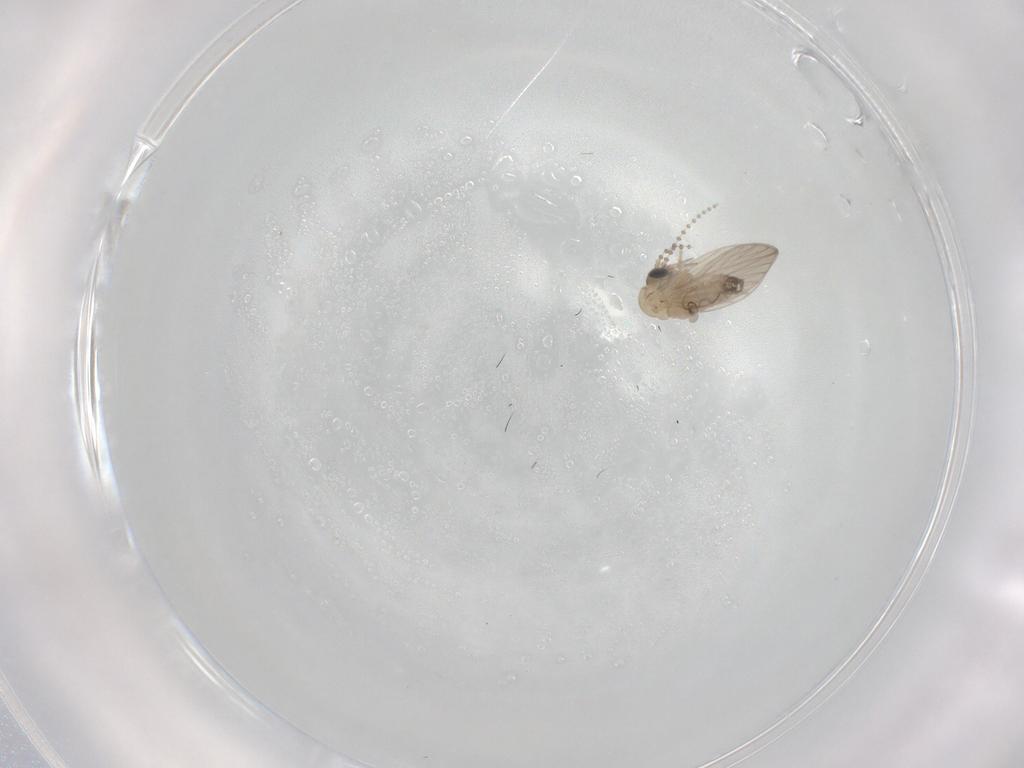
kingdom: Animalia
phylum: Arthropoda
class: Insecta
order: Diptera
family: Psychodidae
